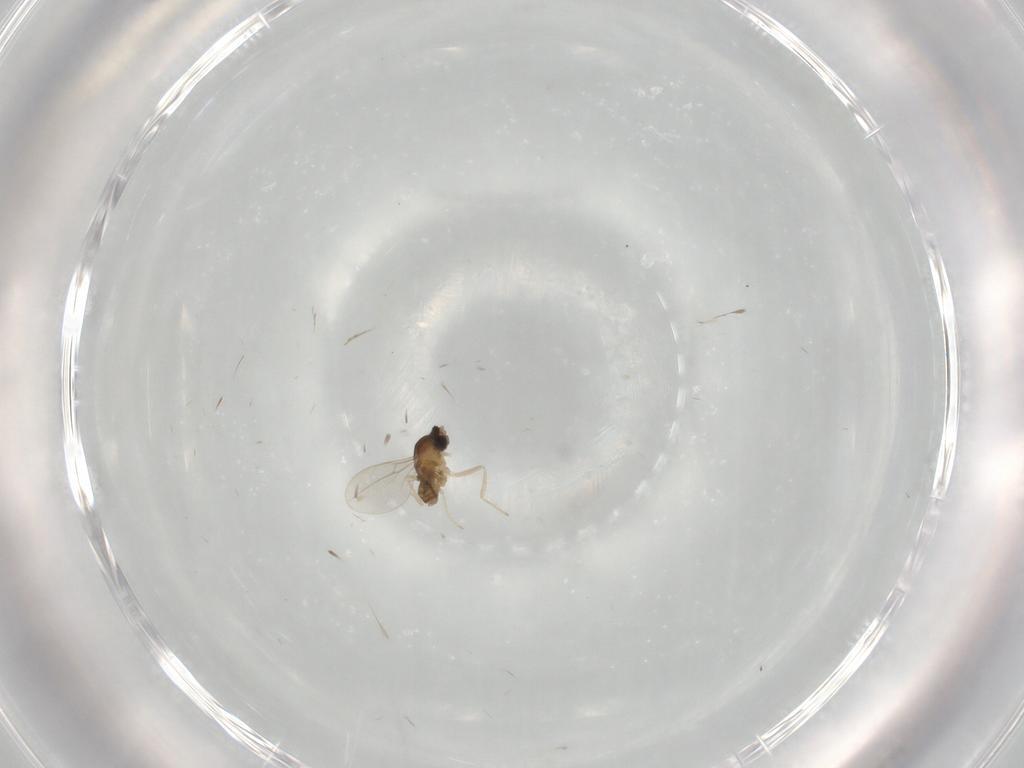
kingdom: Animalia
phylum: Arthropoda
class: Insecta
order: Diptera
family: Cecidomyiidae
